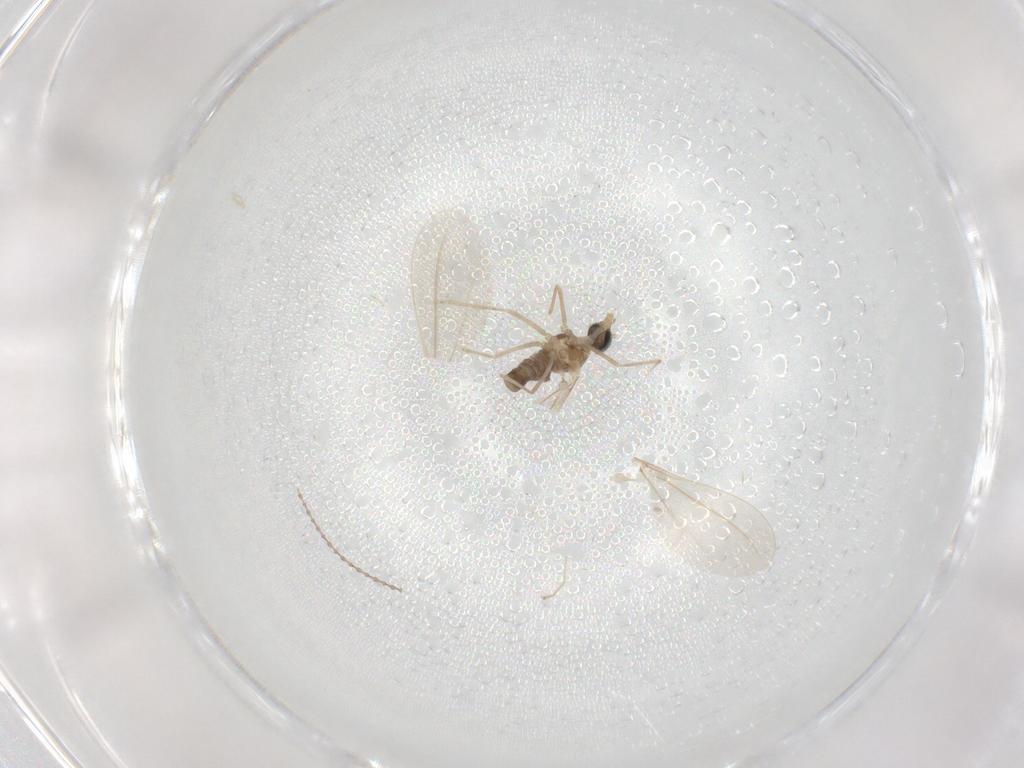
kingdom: Animalia
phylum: Arthropoda
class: Insecta
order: Diptera
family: Cecidomyiidae
